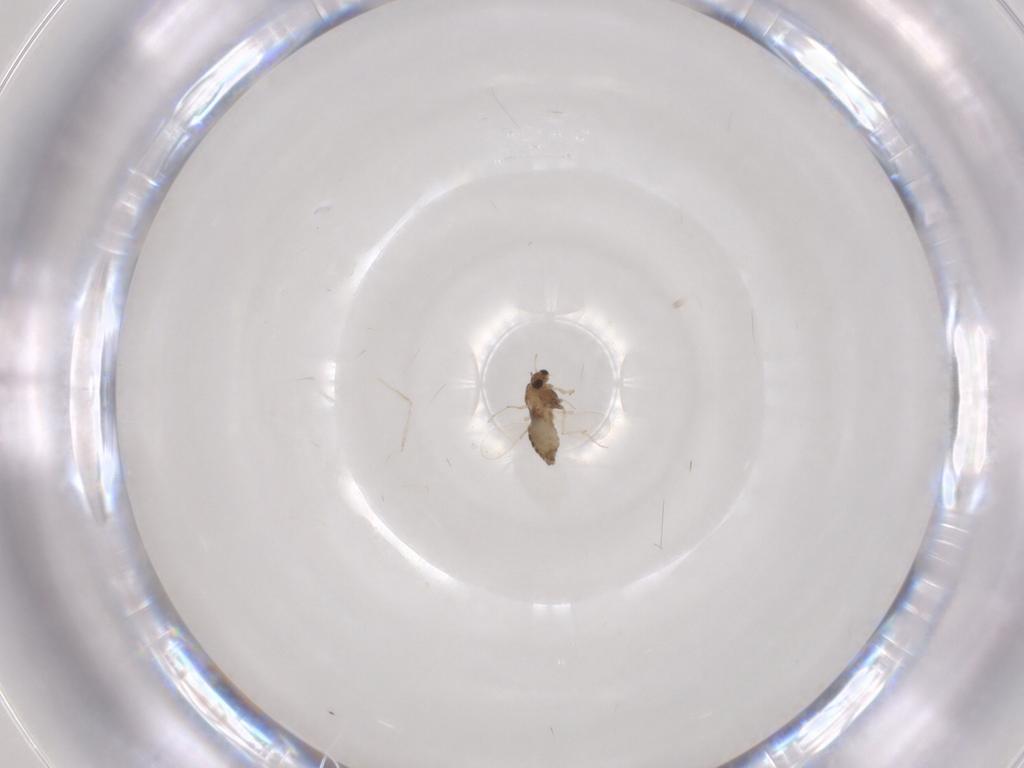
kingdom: Animalia
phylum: Arthropoda
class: Insecta
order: Diptera
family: Chironomidae
